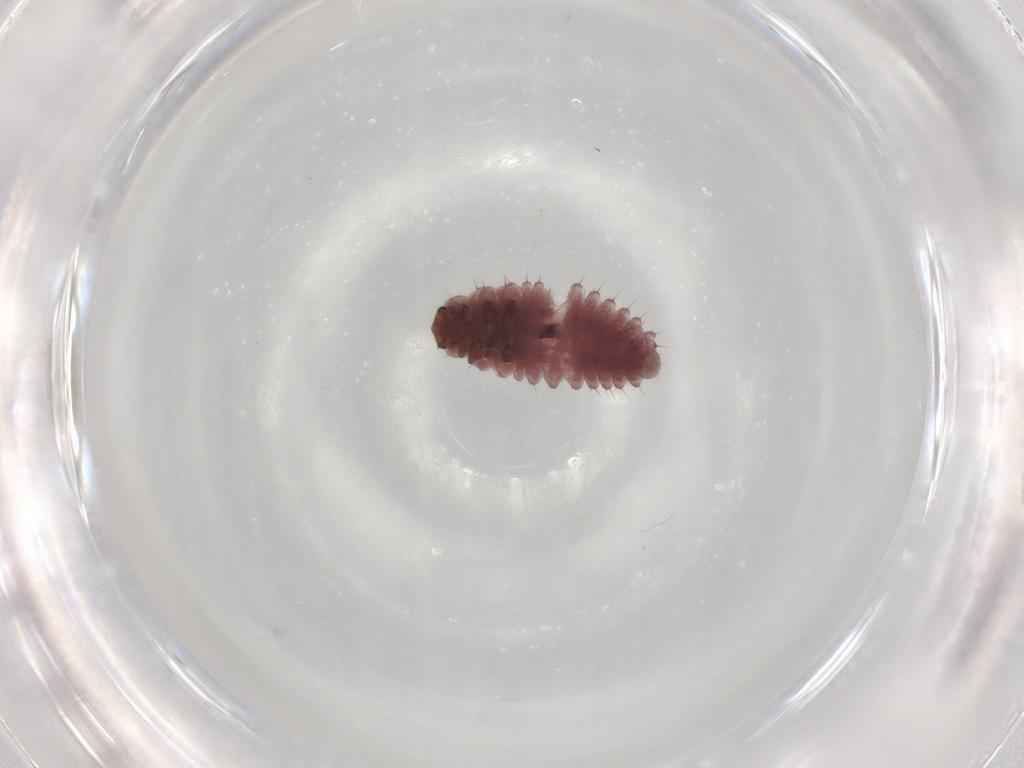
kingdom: Animalia
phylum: Arthropoda
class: Insecta
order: Coleoptera
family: Coccinellidae
